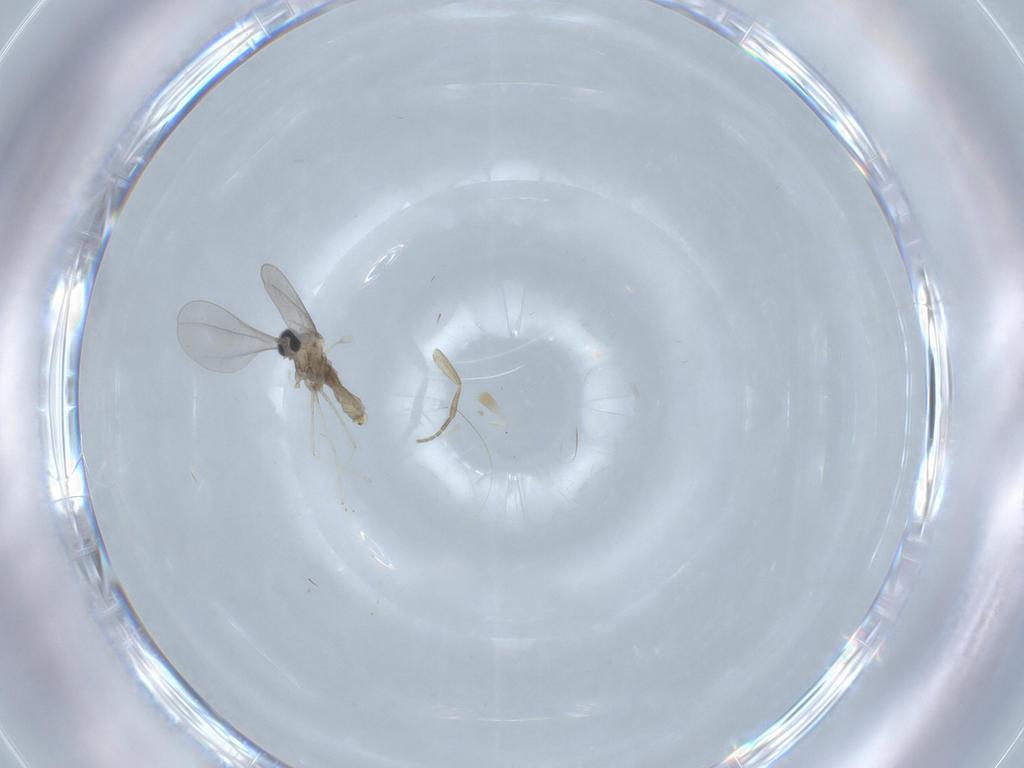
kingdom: Animalia
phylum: Arthropoda
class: Insecta
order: Diptera
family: Cecidomyiidae
